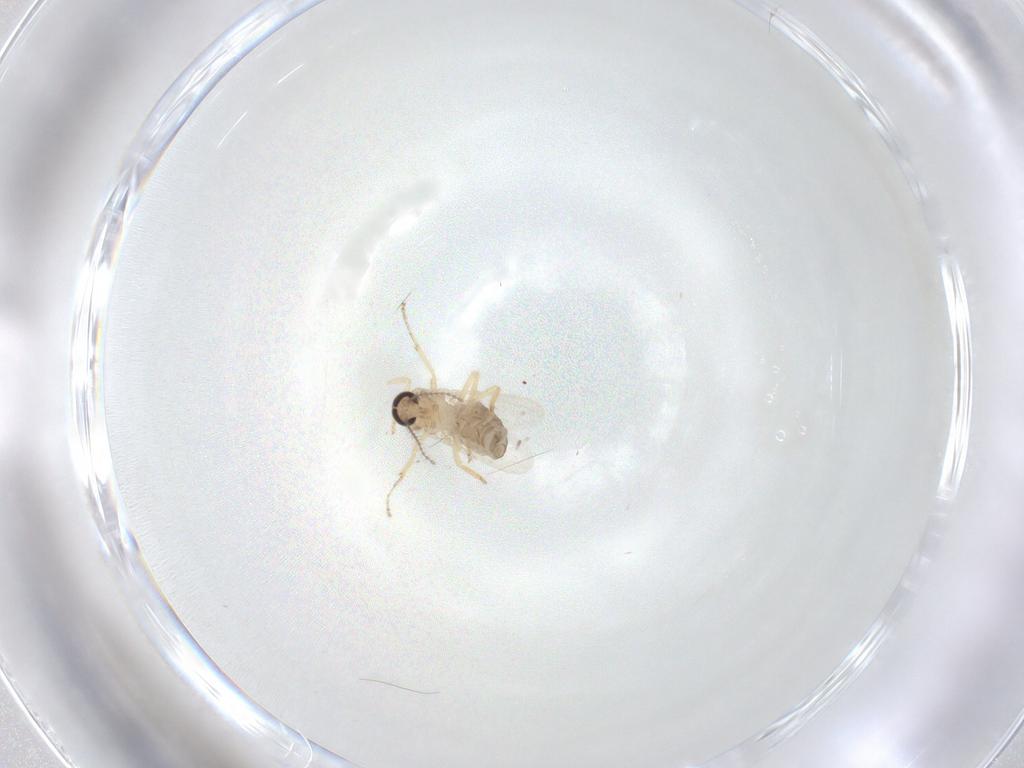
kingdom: Animalia
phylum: Arthropoda
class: Insecta
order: Diptera
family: Ceratopogonidae
